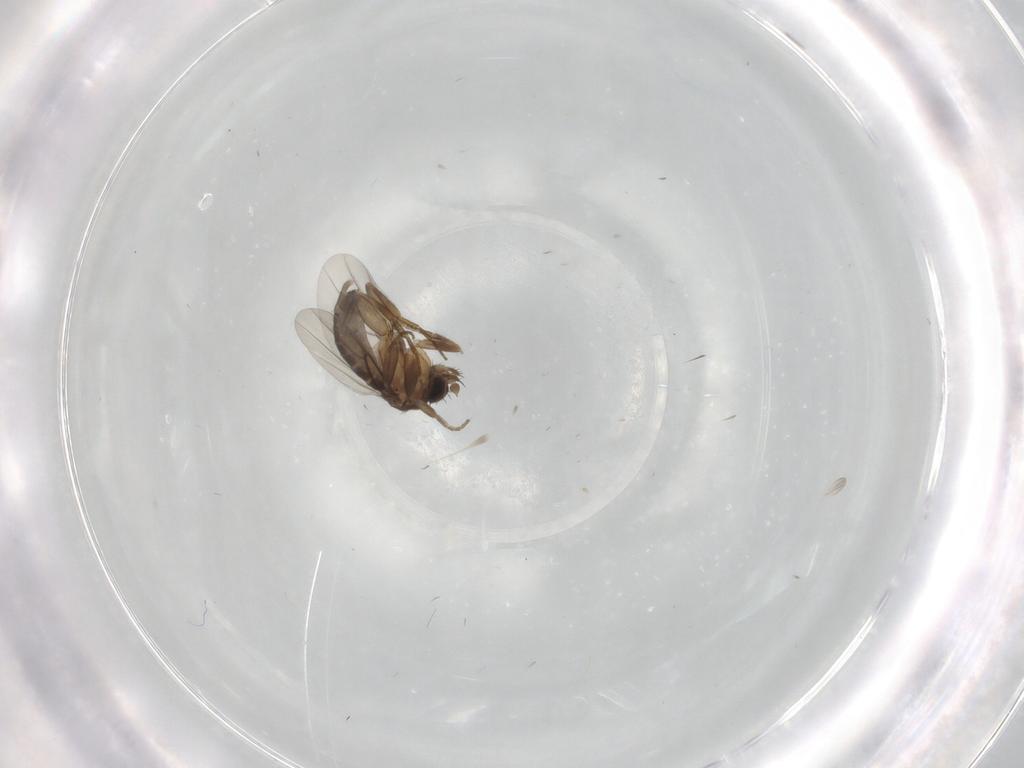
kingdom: Animalia
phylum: Arthropoda
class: Insecta
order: Diptera
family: Phoridae
